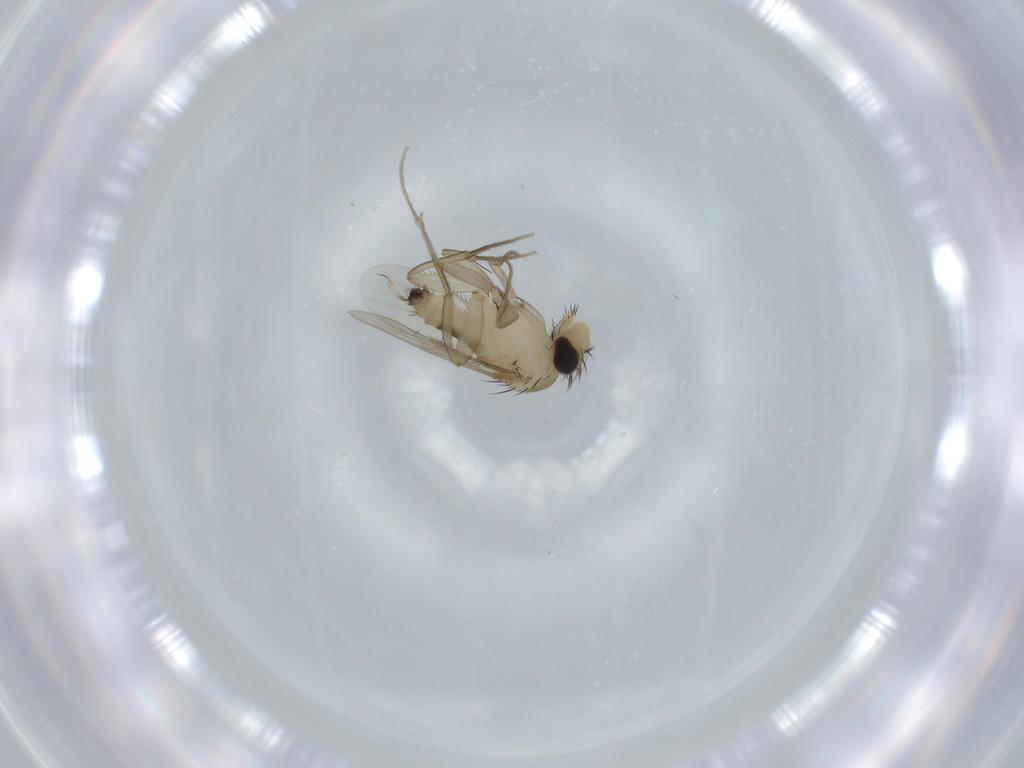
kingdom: Animalia
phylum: Arthropoda
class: Insecta
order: Diptera
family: Phoridae
